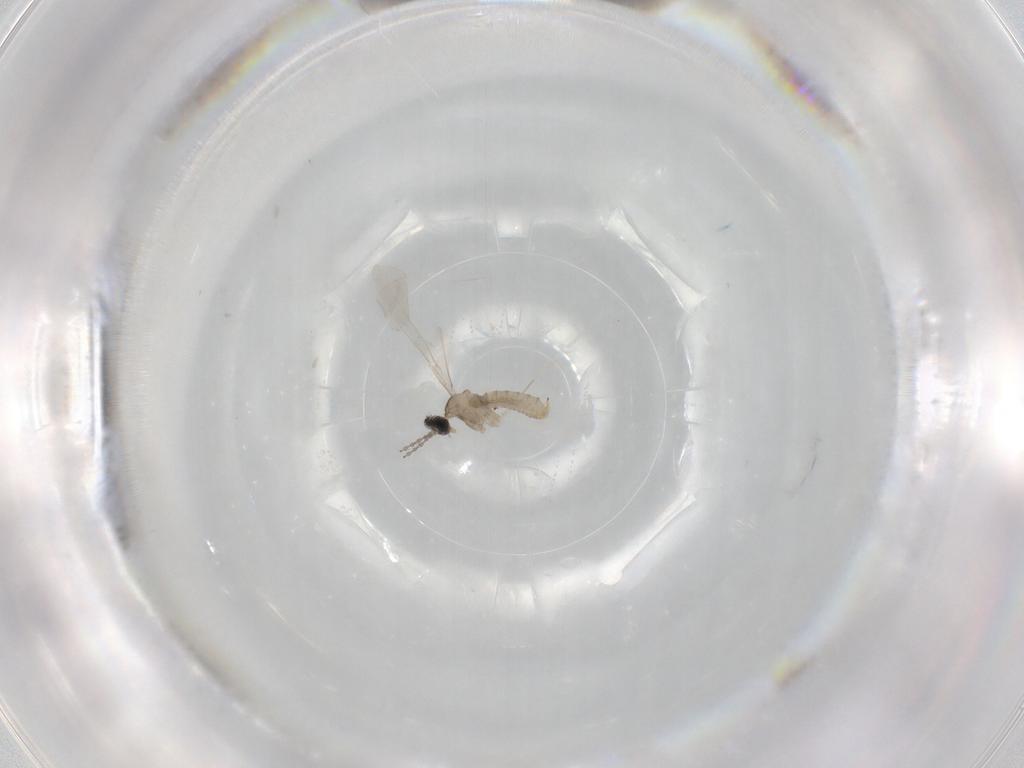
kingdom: Animalia
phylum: Arthropoda
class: Insecta
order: Diptera
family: Cecidomyiidae
